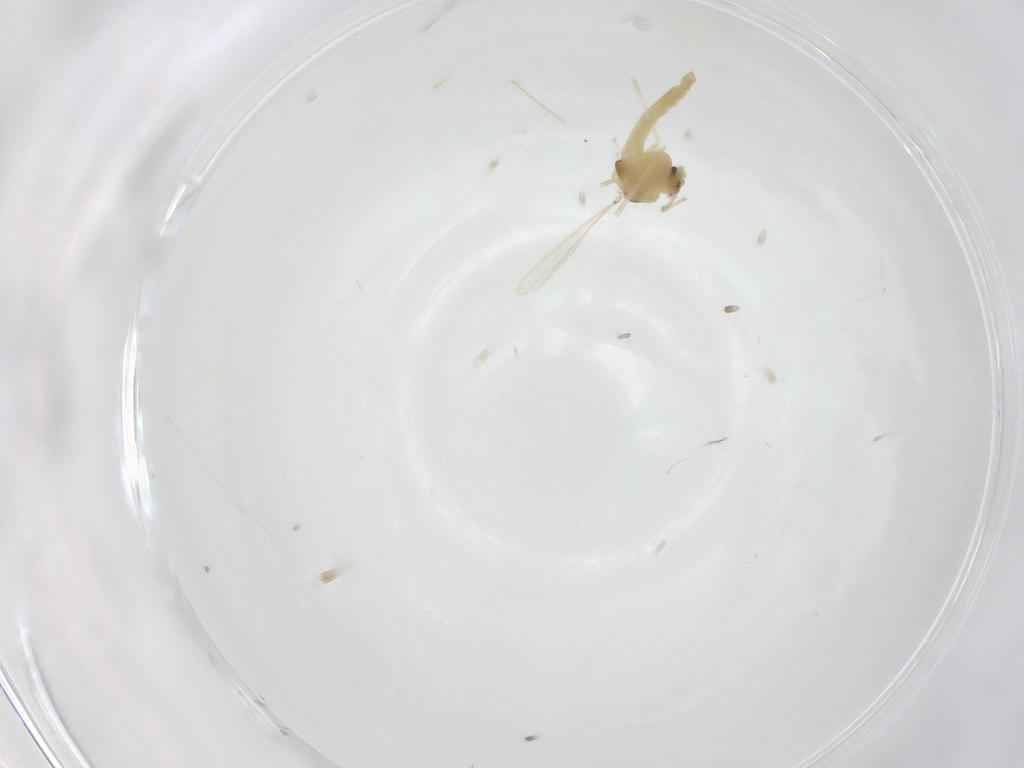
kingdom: Animalia
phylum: Arthropoda
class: Insecta
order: Diptera
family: Chironomidae
